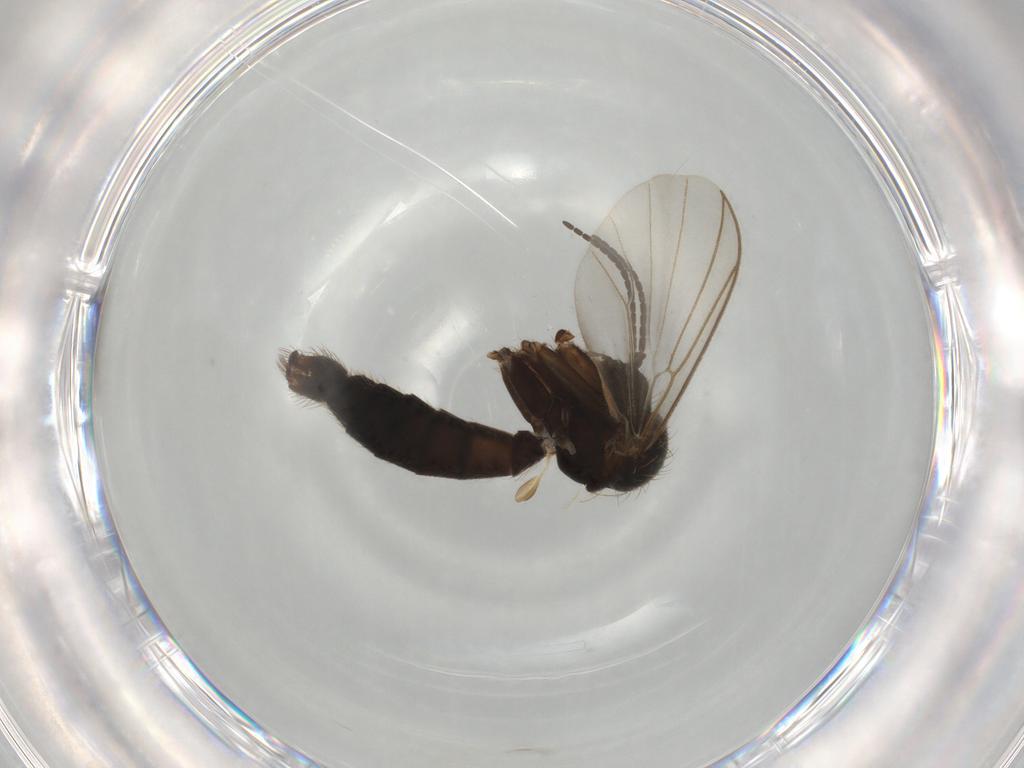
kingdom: Animalia
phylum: Arthropoda
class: Insecta
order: Diptera
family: Mycetophilidae
